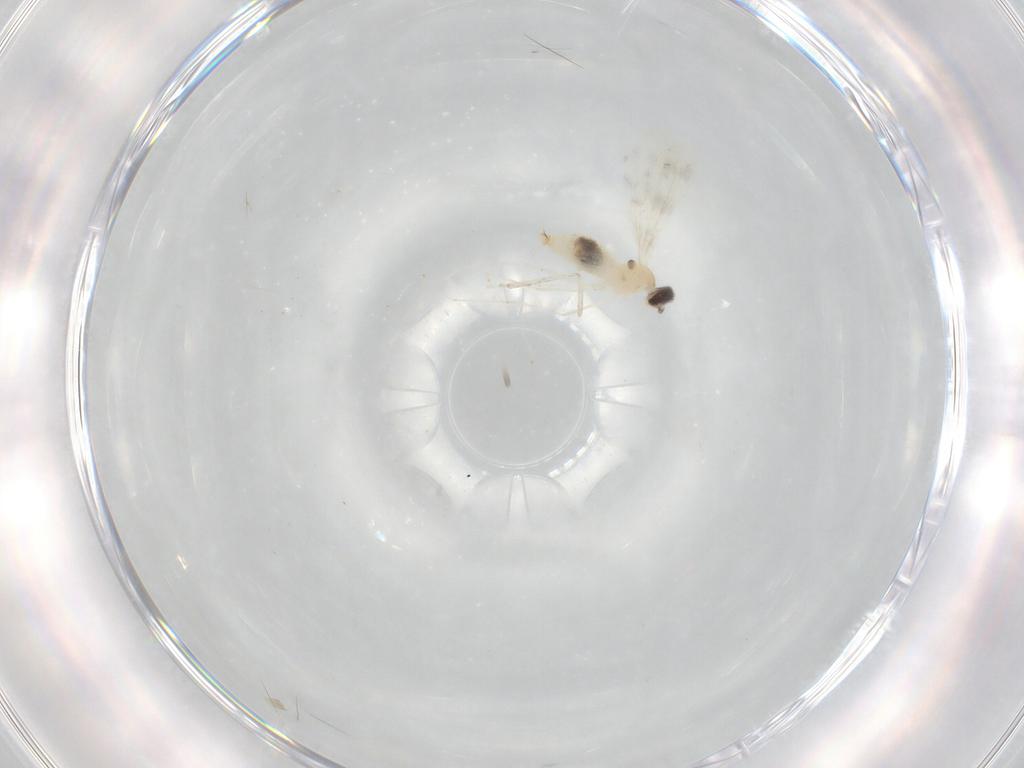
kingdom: Animalia
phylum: Arthropoda
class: Insecta
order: Diptera
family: Cecidomyiidae
